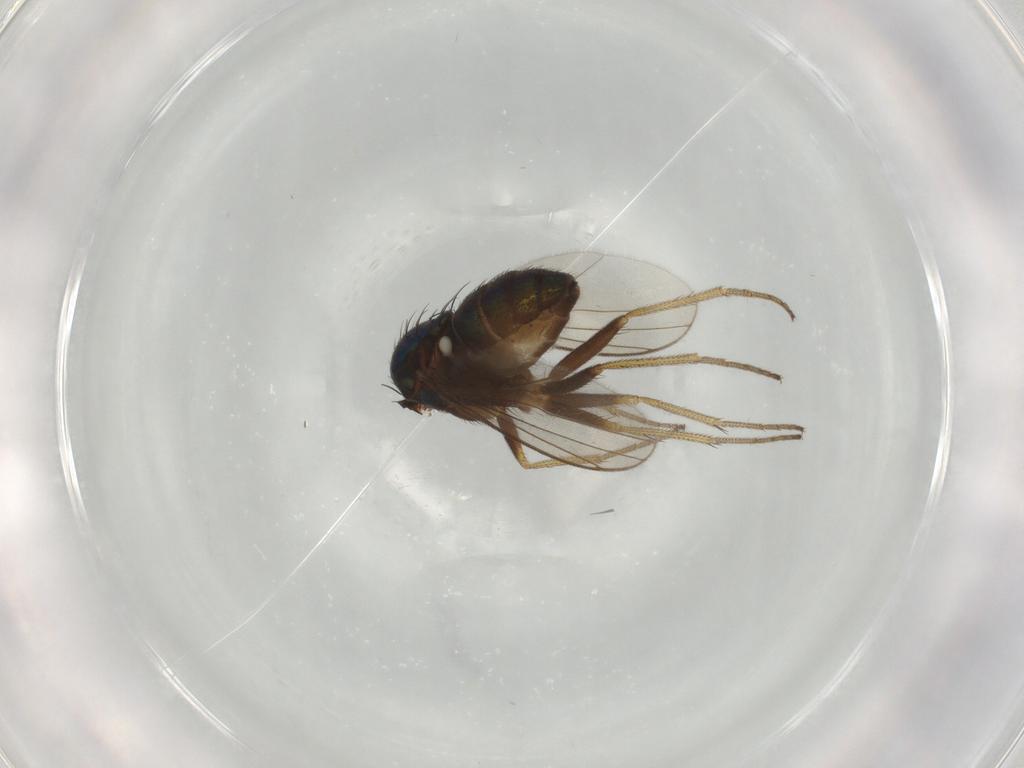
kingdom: Animalia
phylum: Arthropoda
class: Insecta
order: Diptera
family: Dolichopodidae
